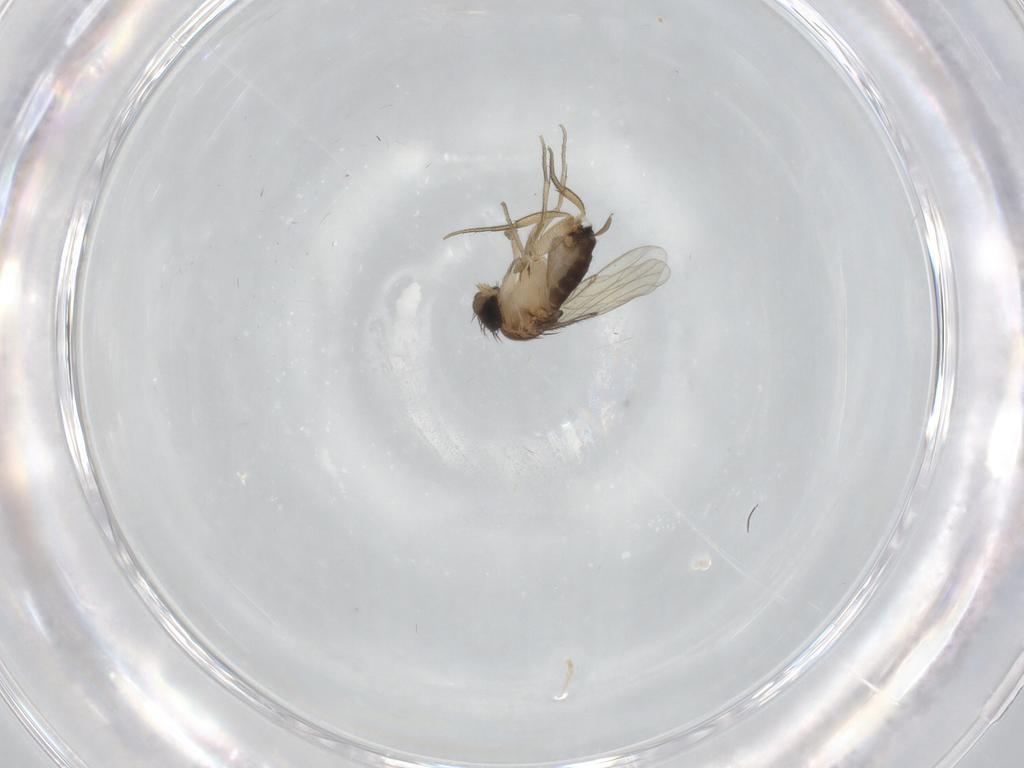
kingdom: Animalia
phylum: Arthropoda
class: Insecta
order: Diptera
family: Phoridae
